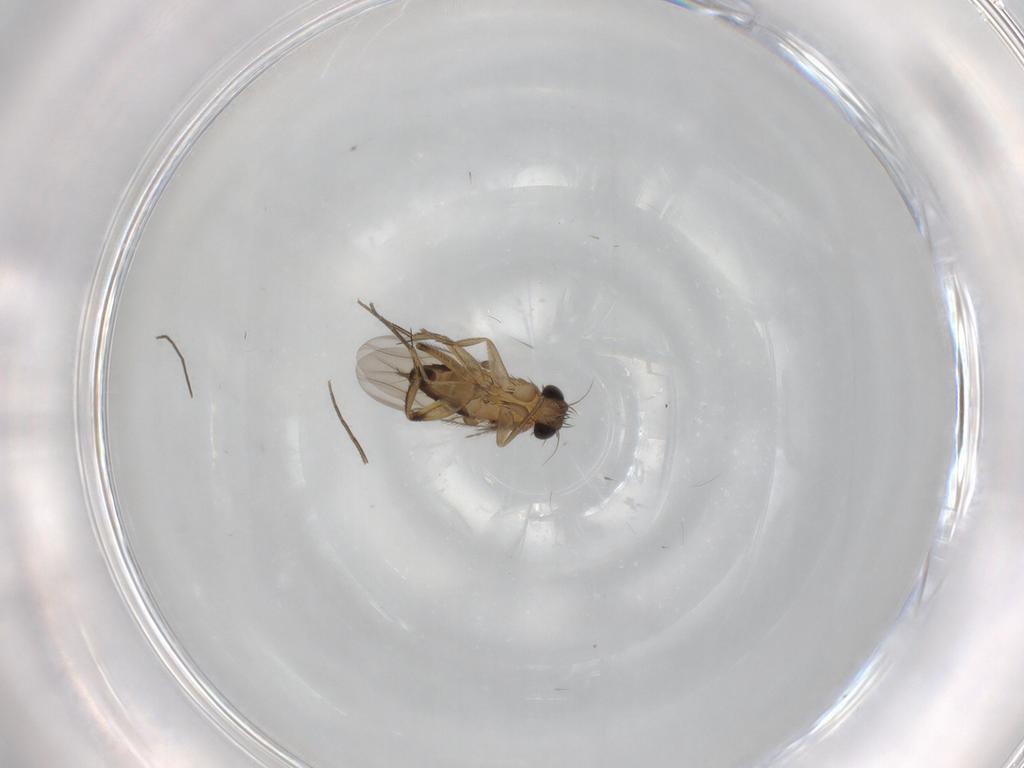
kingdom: Animalia
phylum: Arthropoda
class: Insecta
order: Diptera
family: Phoridae
